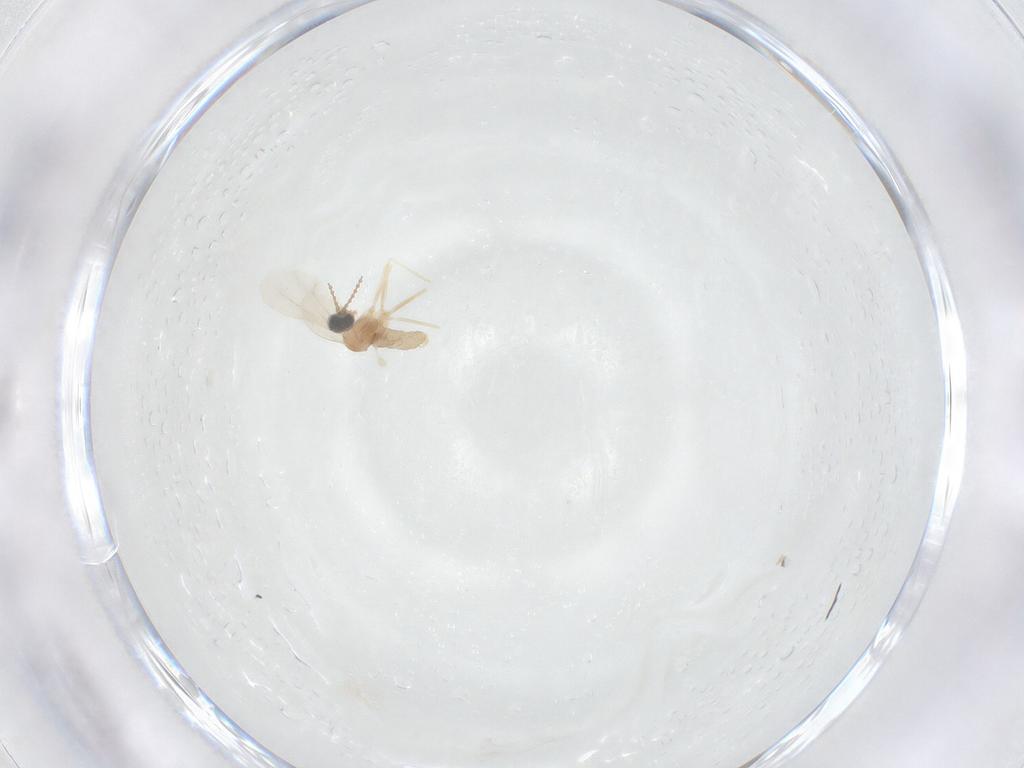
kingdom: Animalia
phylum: Arthropoda
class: Insecta
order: Diptera
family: Cecidomyiidae
